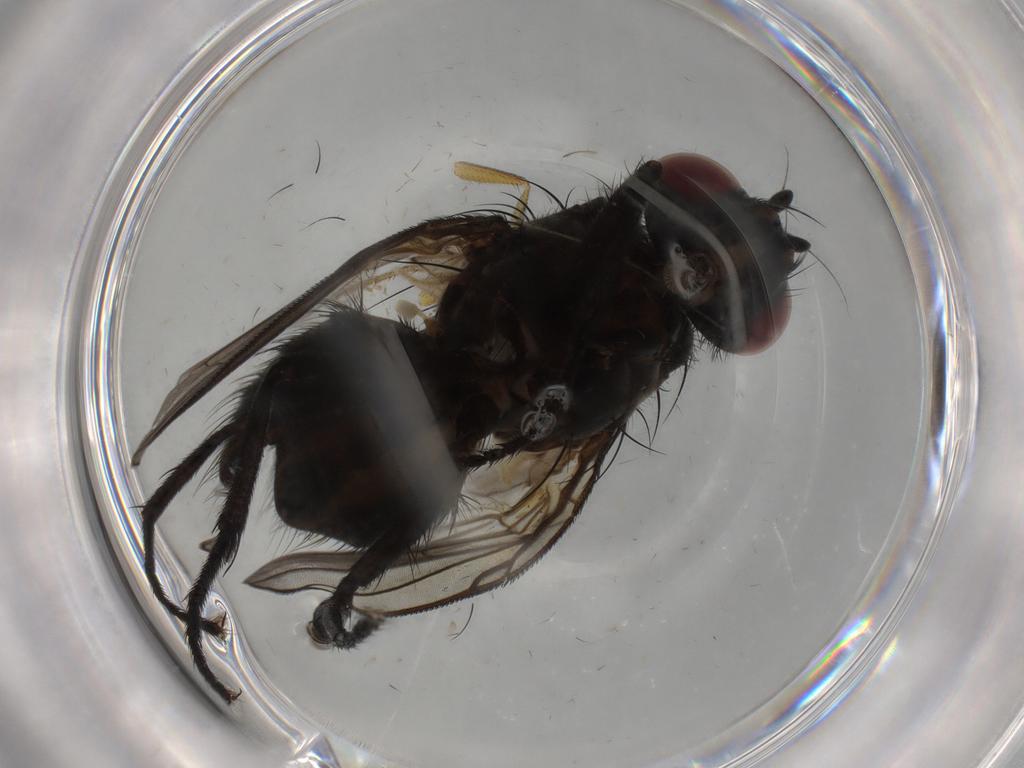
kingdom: Animalia
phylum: Arthropoda
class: Insecta
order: Diptera
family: Muscidae
